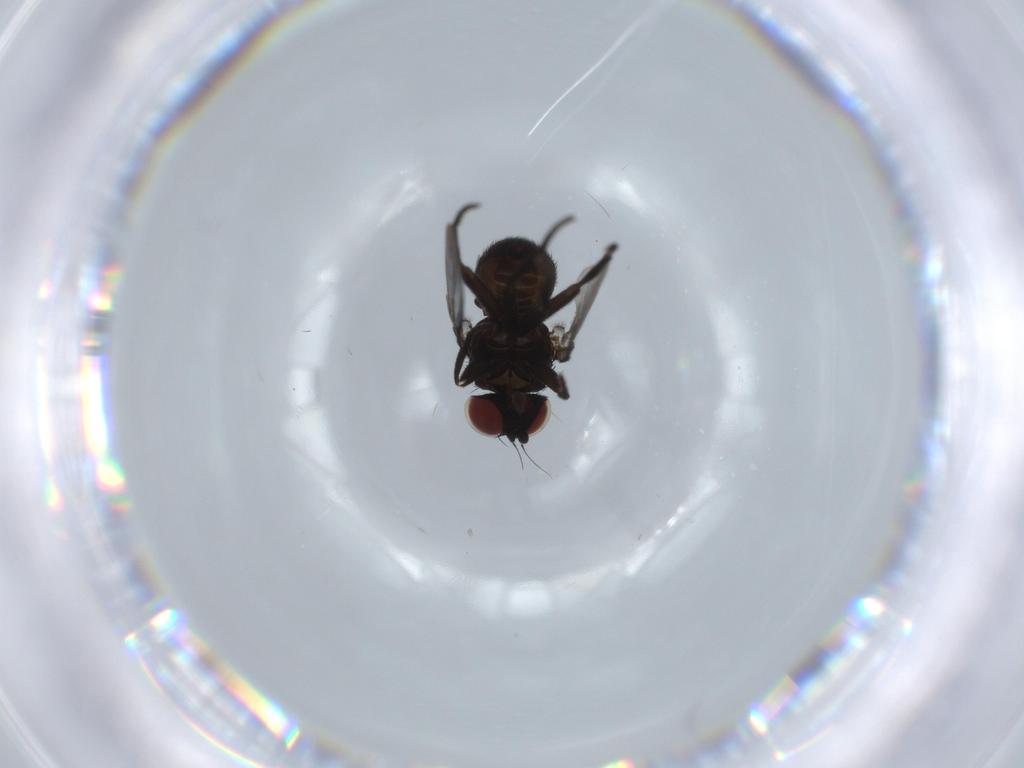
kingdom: Animalia
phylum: Arthropoda
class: Insecta
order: Diptera
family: Agromyzidae
